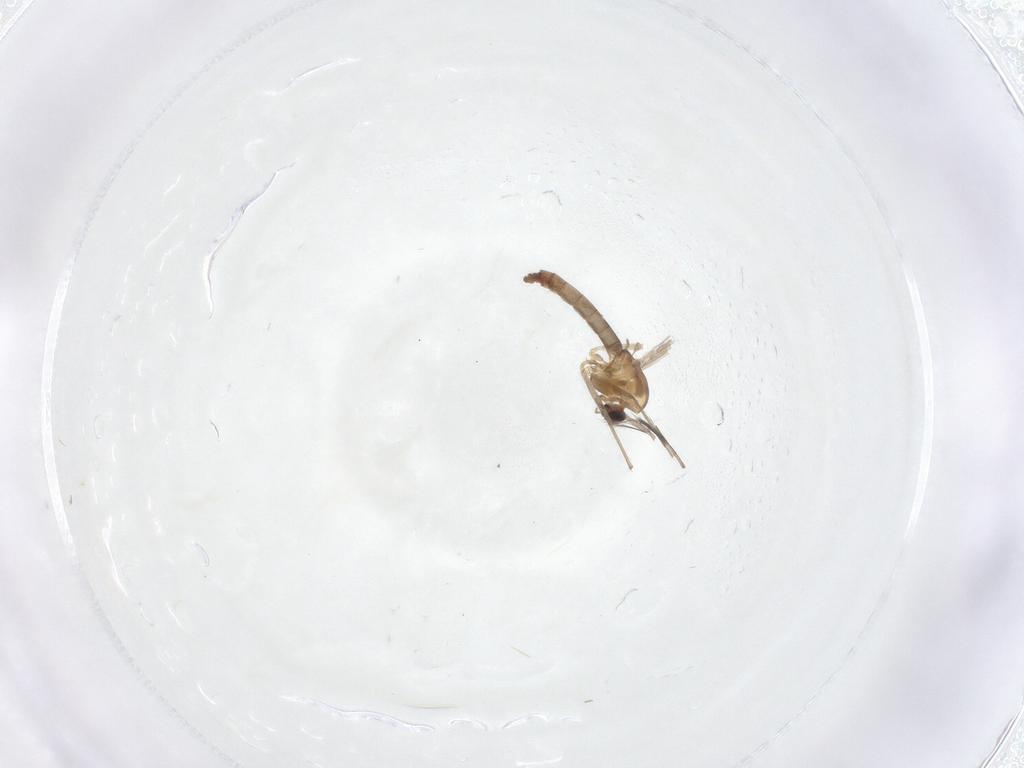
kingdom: Animalia
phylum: Arthropoda
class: Insecta
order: Diptera
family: Chironomidae
